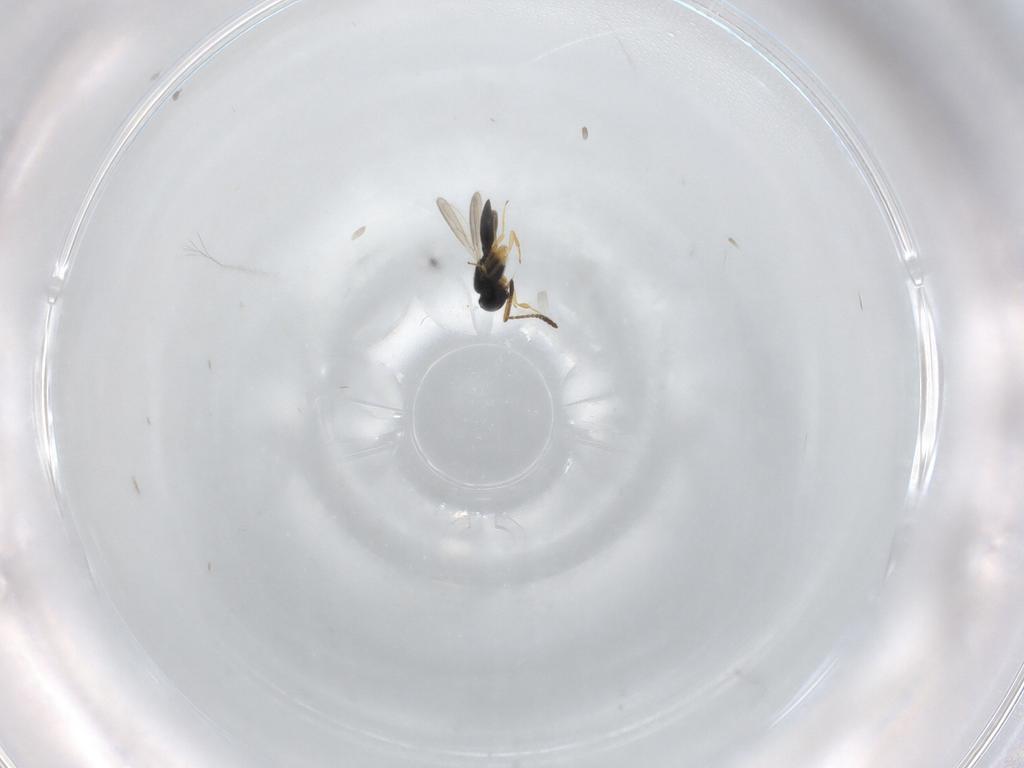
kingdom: Animalia
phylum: Arthropoda
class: Insecta
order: Hymenoptera
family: Scelionidae
